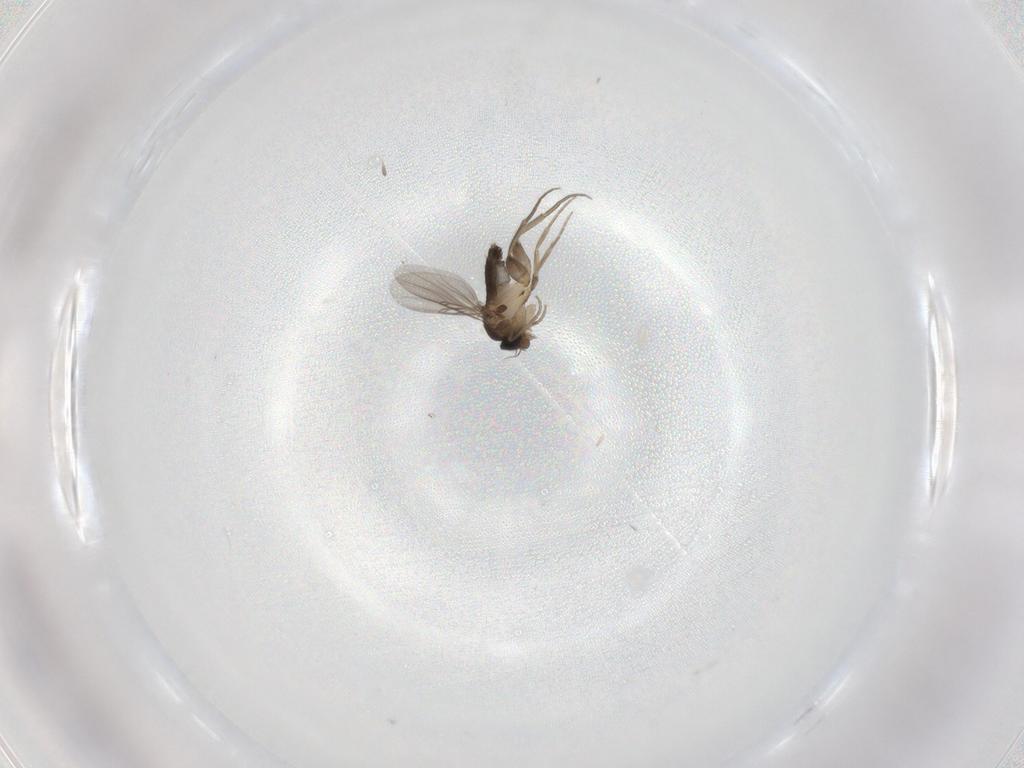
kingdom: Animalia
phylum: Arthropoda
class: Insecta
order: Diptera
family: Phoridae
